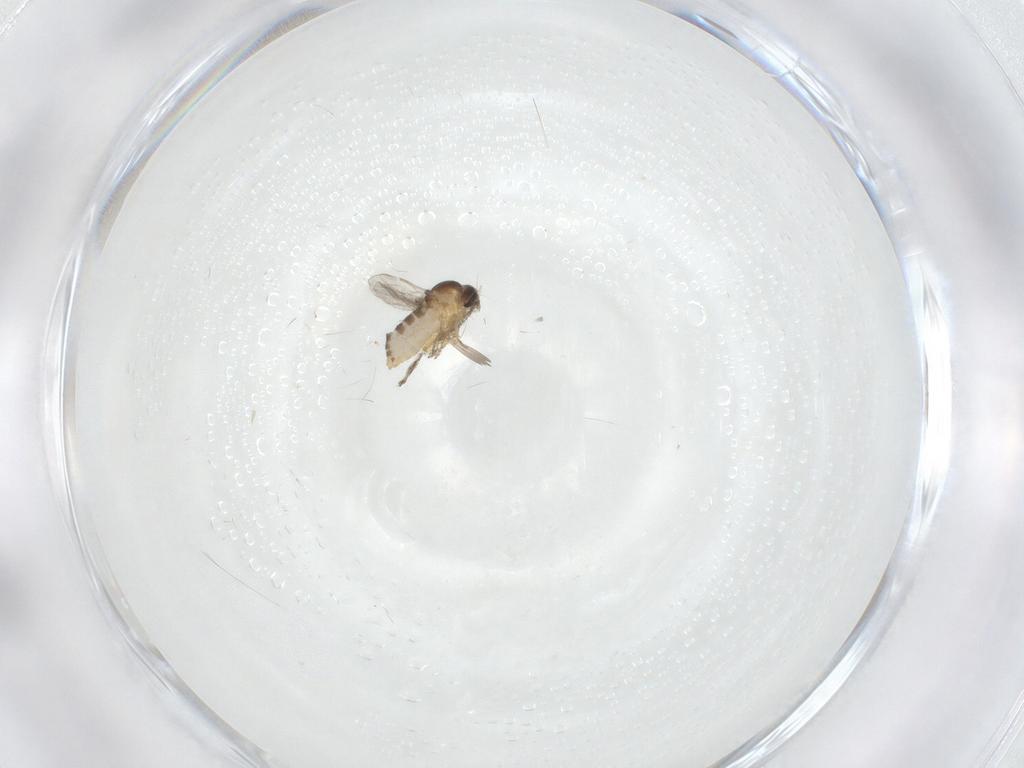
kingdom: Animalia
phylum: Arthropoda
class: Insecta
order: Diptera
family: Ceratopogonidae
